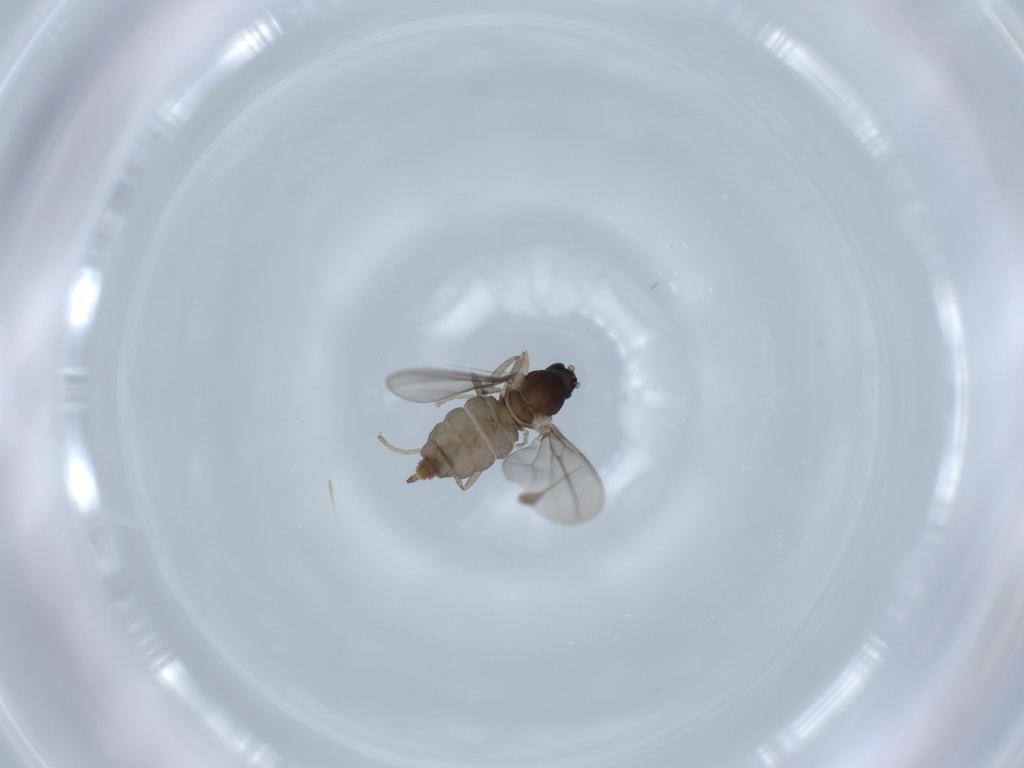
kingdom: Animalia
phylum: Arthropoda
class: Insecta
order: Diptera
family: Cecidomyiidae
